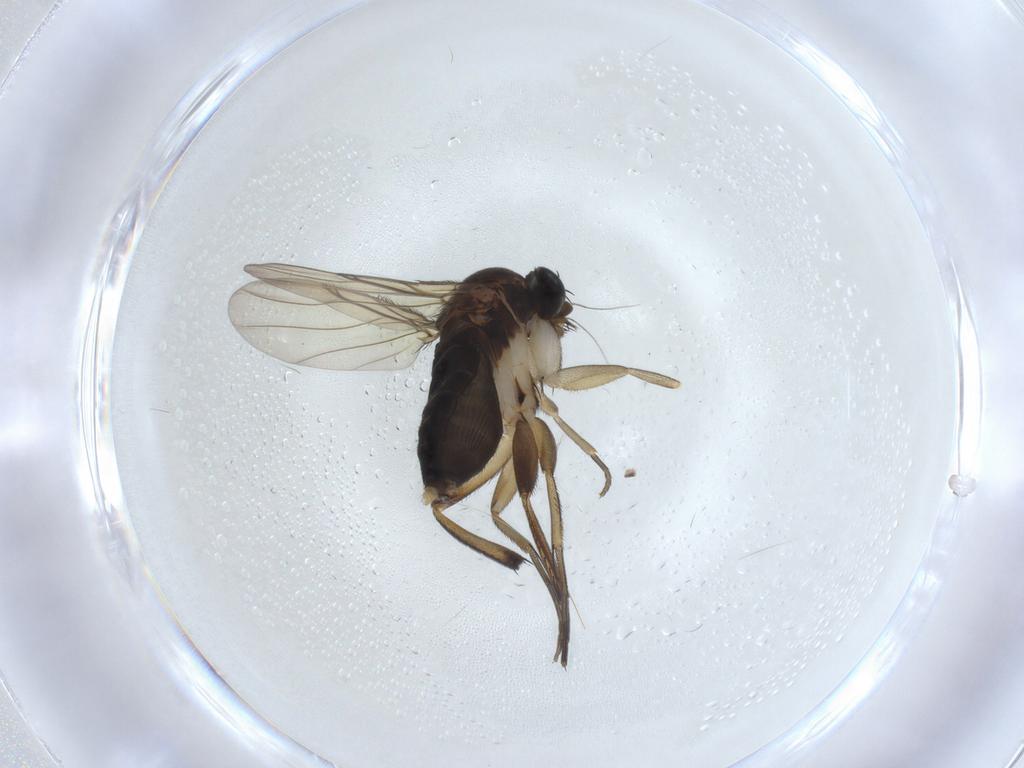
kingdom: Animalia
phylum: Arthropoda
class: Insecta
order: Diptera
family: Phoridae
